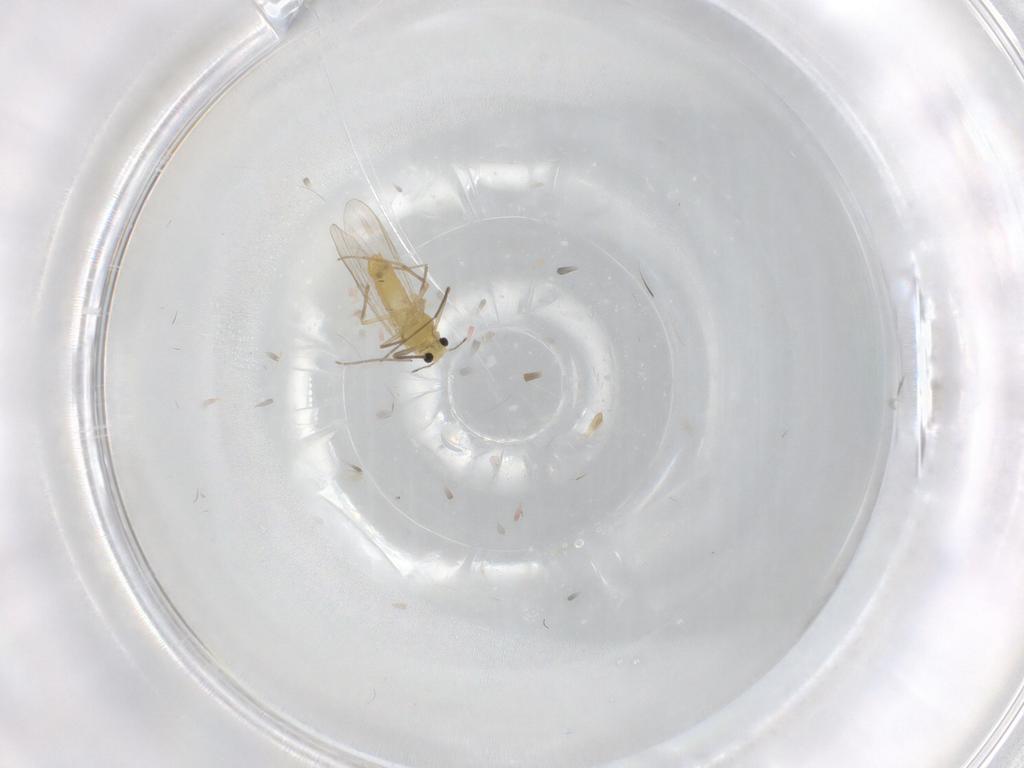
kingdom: Animalia
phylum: Arthropoda
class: Insecta
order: Diptera
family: Chironomidae
